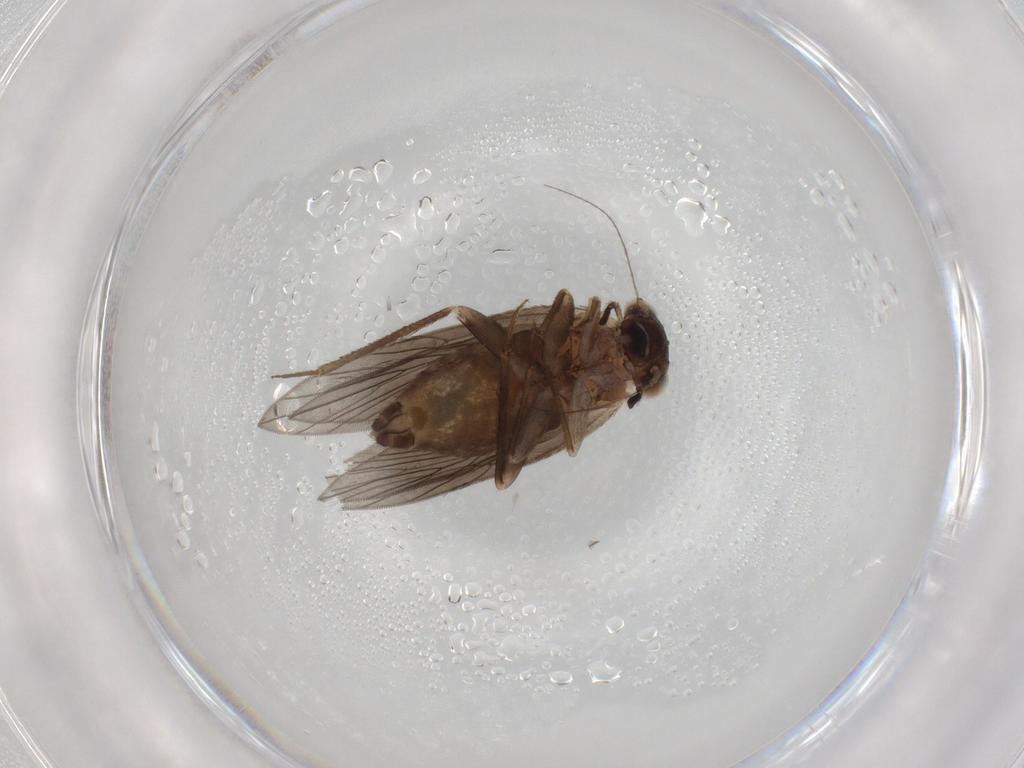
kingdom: Animalia
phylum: Arthropoda
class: Insecta
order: Psocodea
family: Lepidopsocidae
